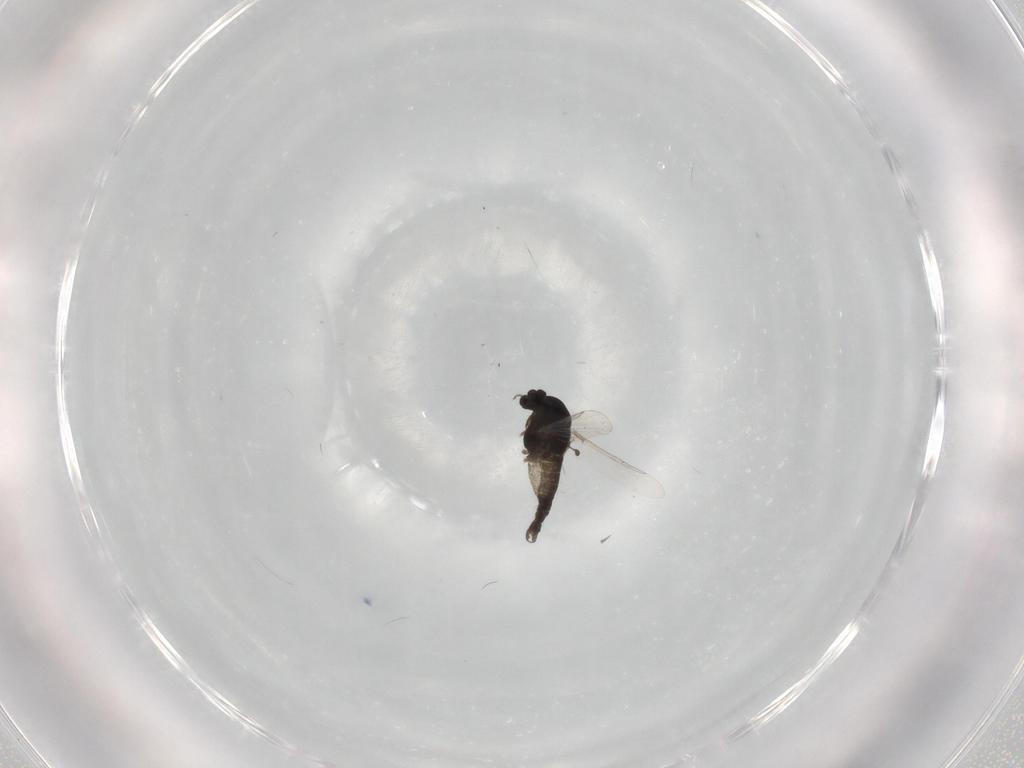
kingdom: Animalia
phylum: Arthropoda
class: Insecta
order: Diptera
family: Chironomidae
